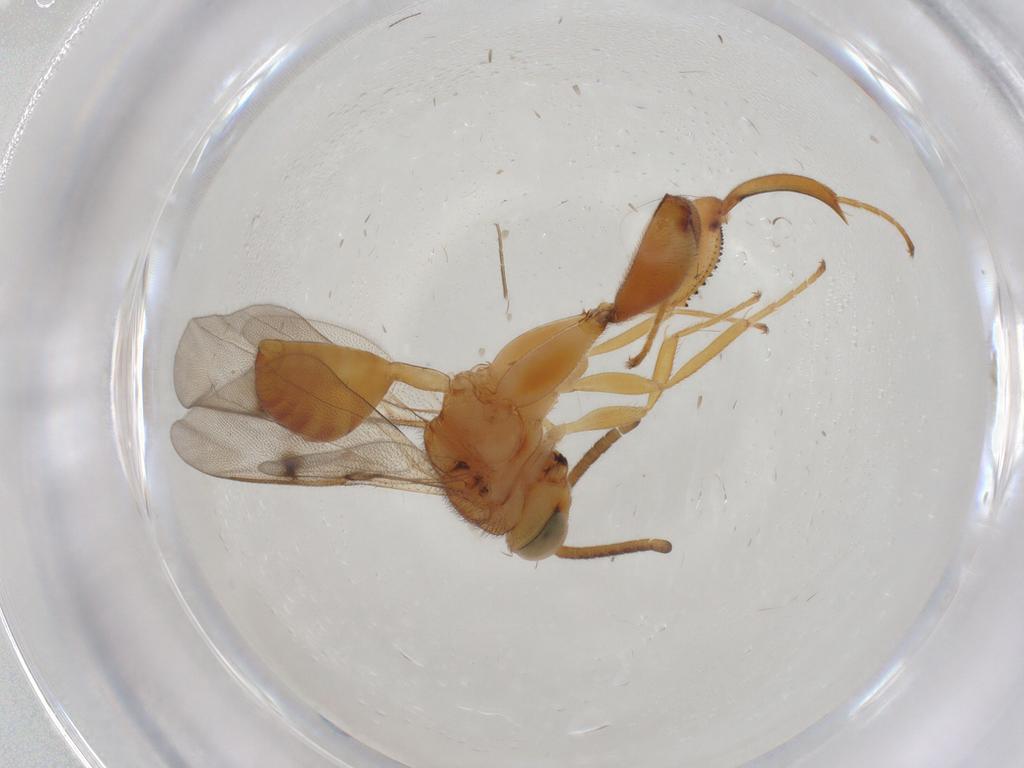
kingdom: Animalia
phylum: Arthropoda
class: Insecta
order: Hymenoptera
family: Chalcididae
